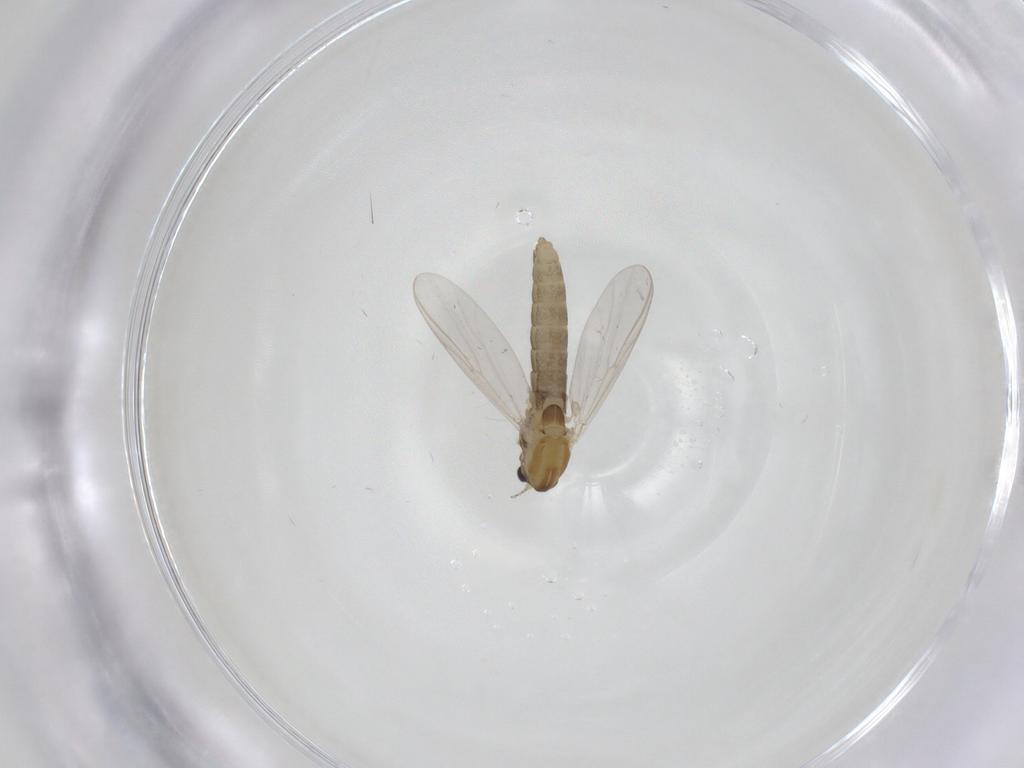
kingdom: Animalia
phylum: Arthropoda
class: Insecta
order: Diptera
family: Chironomidae
